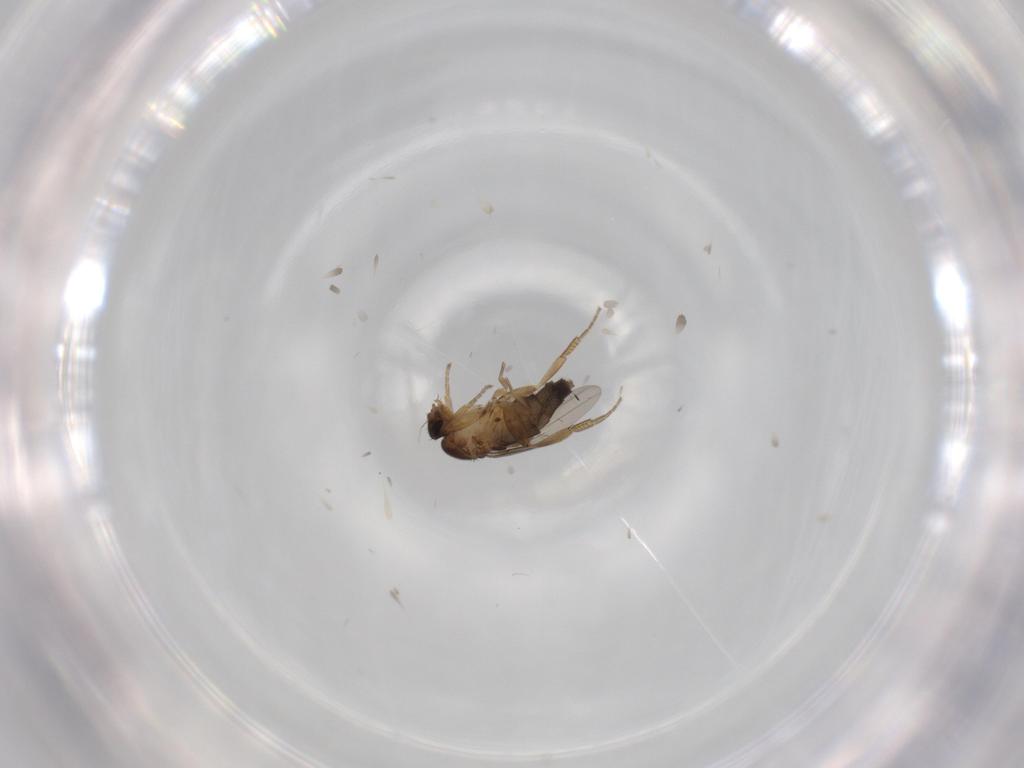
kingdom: Animalia
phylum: Arthropoda
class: Insecta
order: Diptera
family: Phoridae
